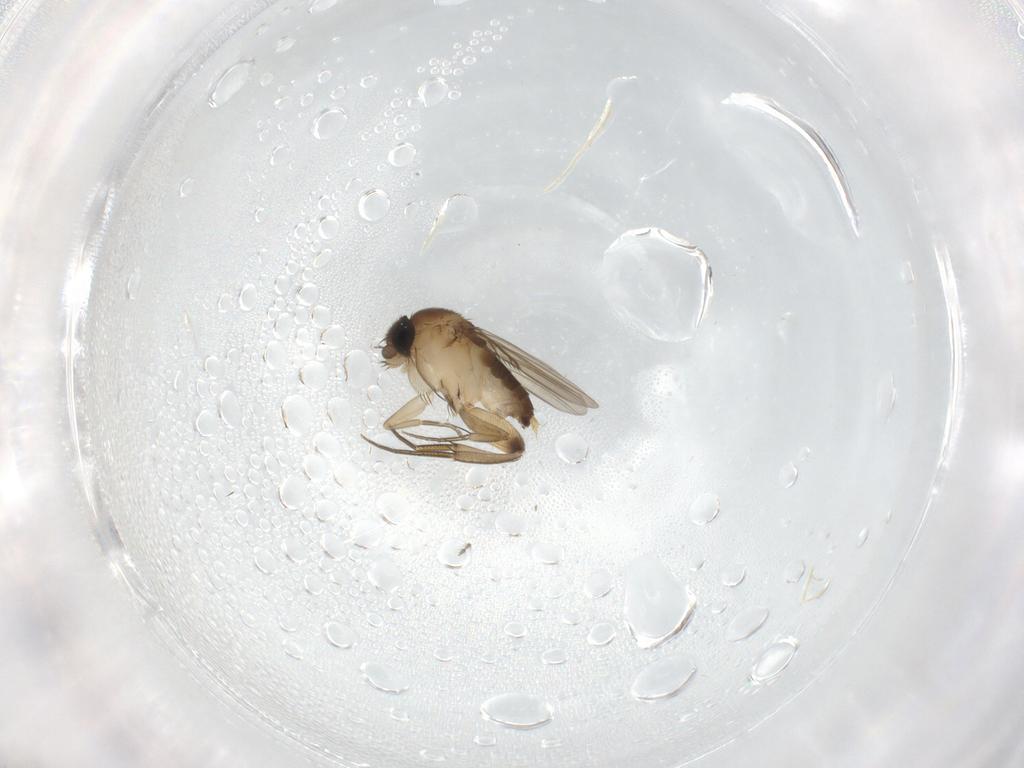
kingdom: Animalia
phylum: Arthropoda
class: Insecta
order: Diptera
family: Phoridae
